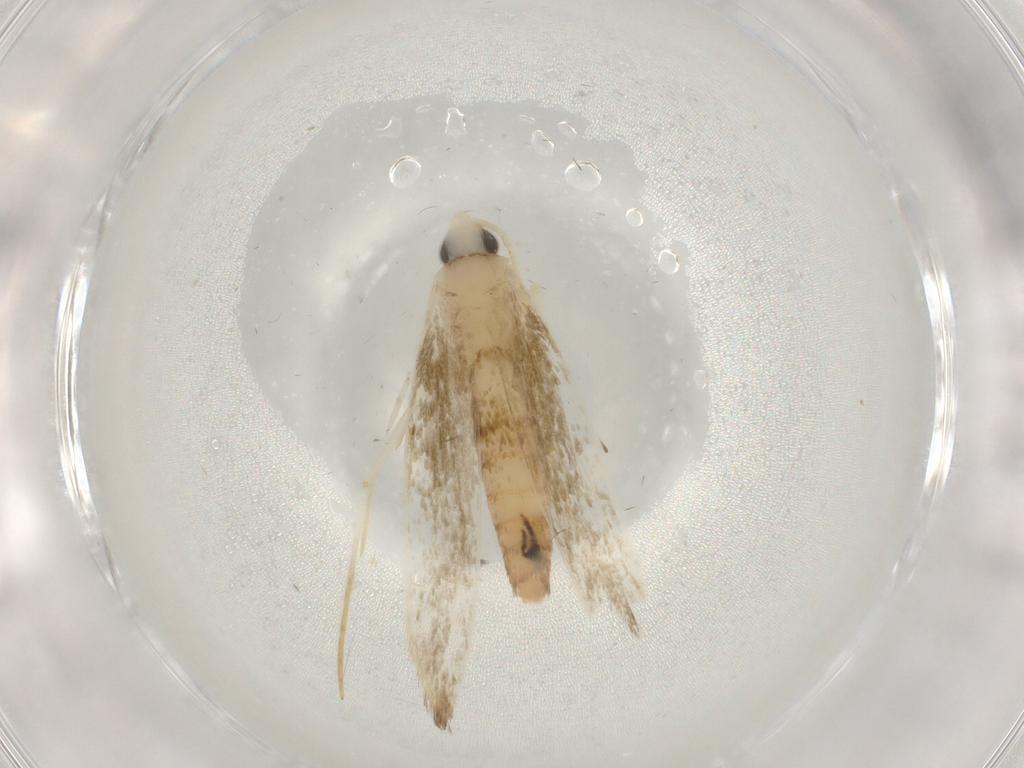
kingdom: Animalia
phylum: Arthropoda
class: Insecta
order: Lepidoptera
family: Lyonetiidae
